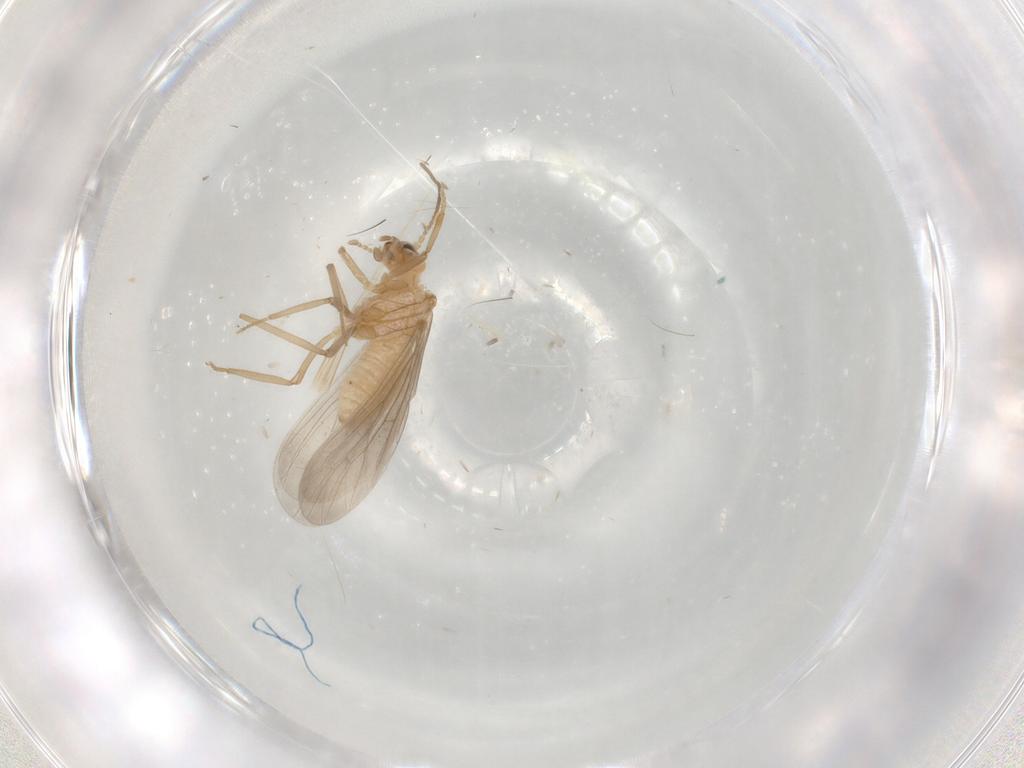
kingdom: Animalia
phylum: Arthropoda
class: Insecta
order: Neuroptera
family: Coniopterygidae
